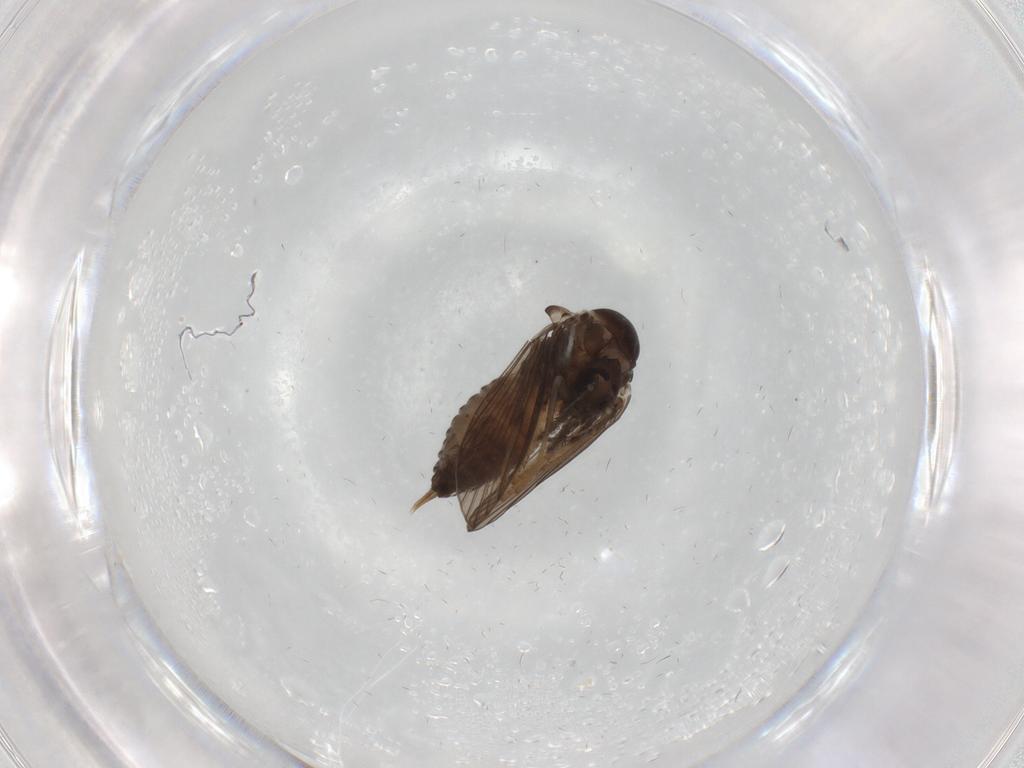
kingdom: Animalia
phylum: Arthropoda
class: Insecta
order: Diptera
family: Psychodidae
